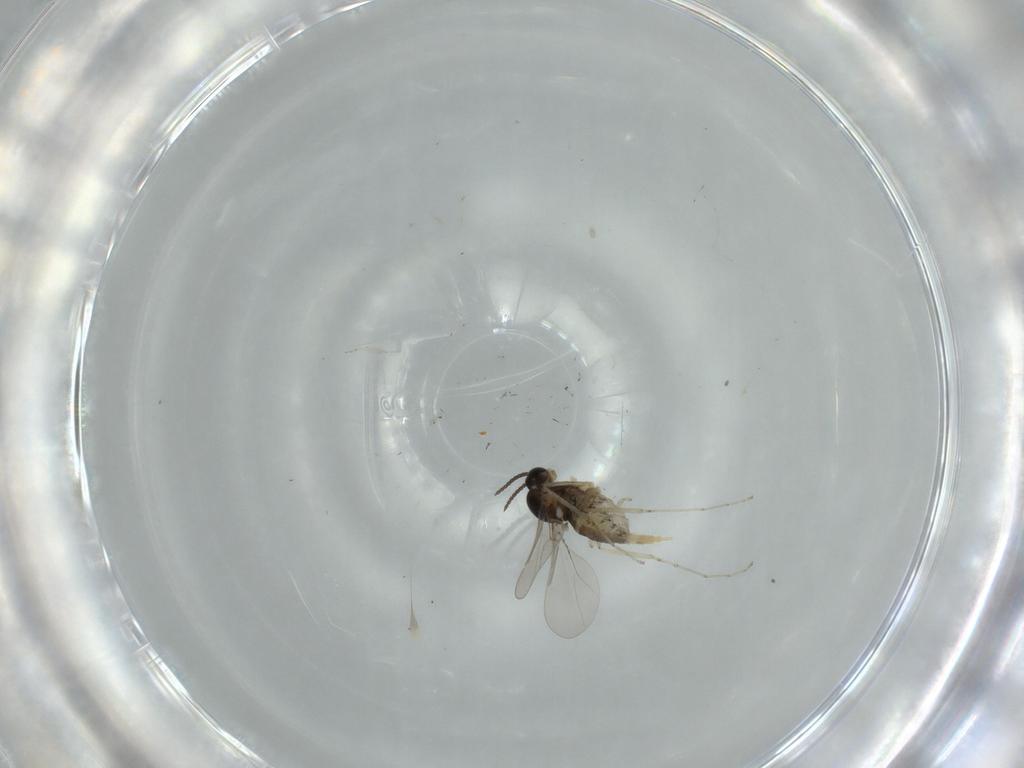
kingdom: Animalia
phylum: Arthropoda
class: Insecta
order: Diptera
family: Cecidomyiidae
